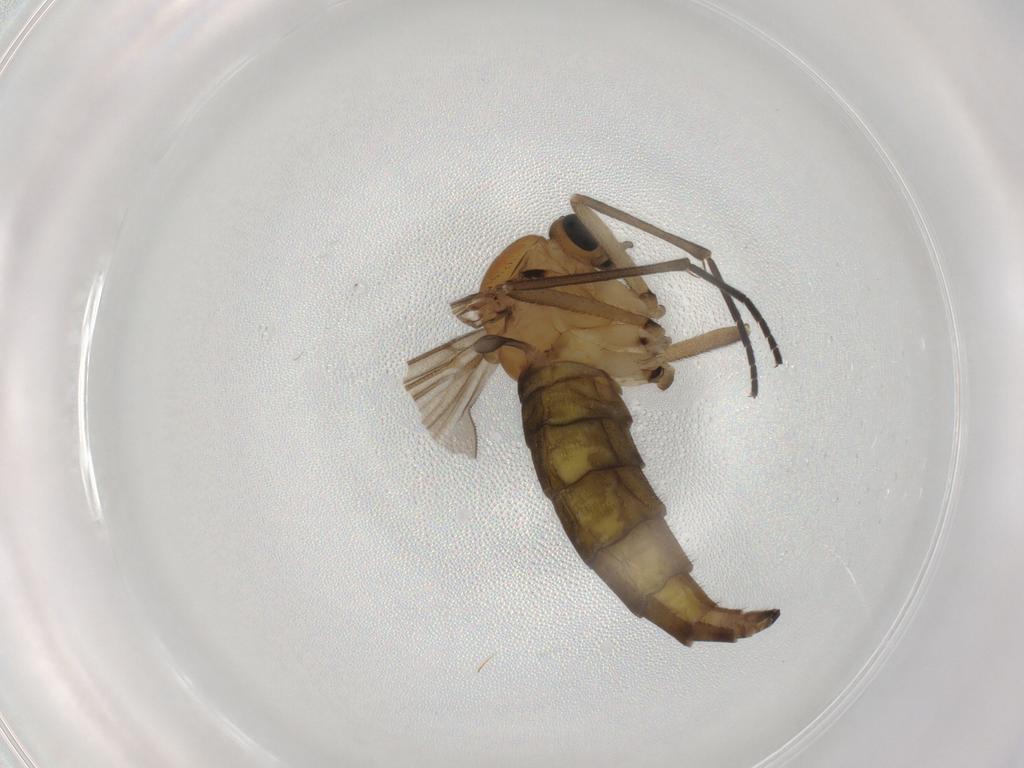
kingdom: Animalia
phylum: Arthropoda
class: Insecta
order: Diptera
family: Sciaridae
